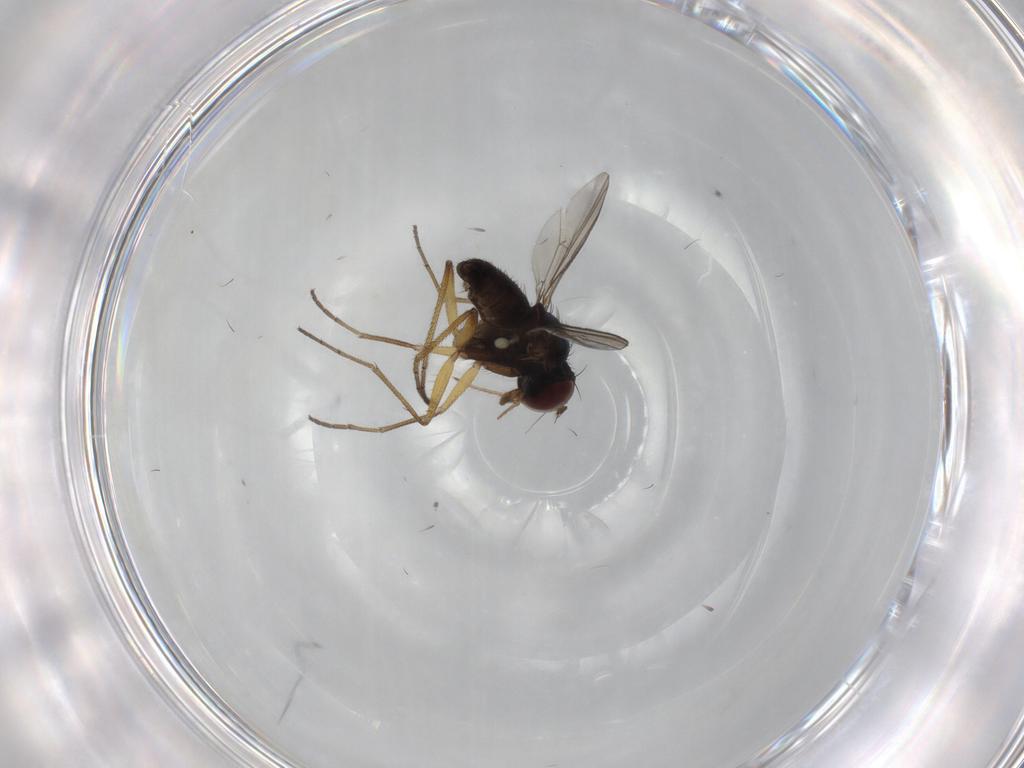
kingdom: Animalia
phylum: Arthropoda
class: Insecta
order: Diptera
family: Dolichopodidae
